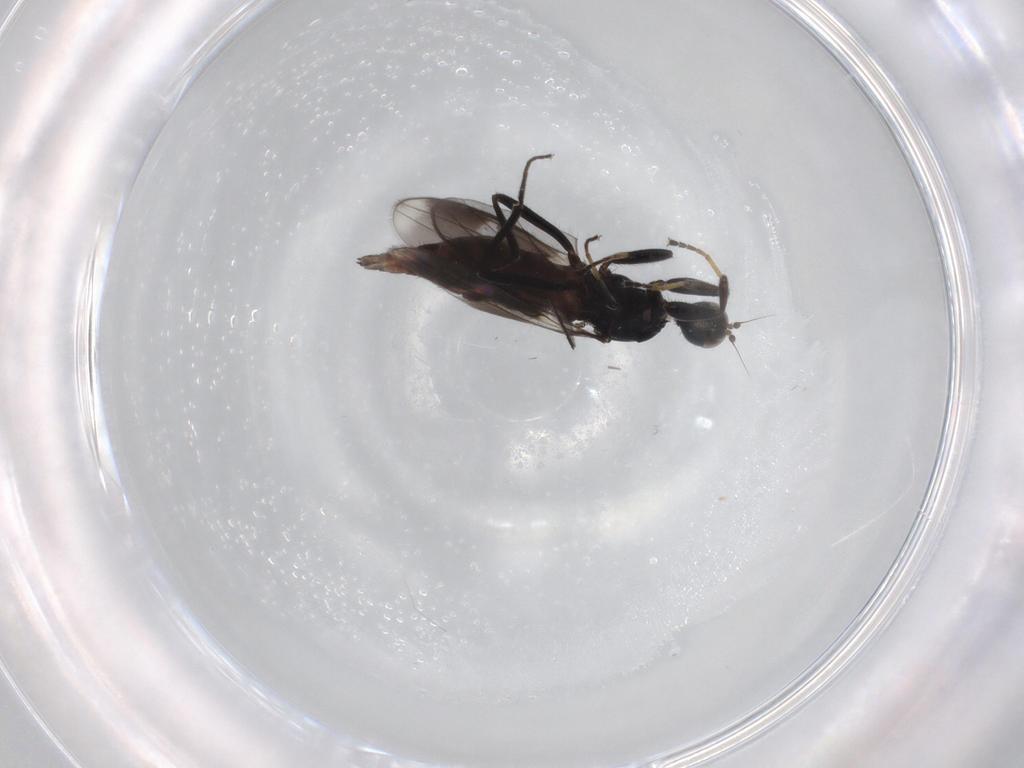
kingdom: Animalia
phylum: Arthropoda
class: Insecta
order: Diptera
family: Hybotidae
